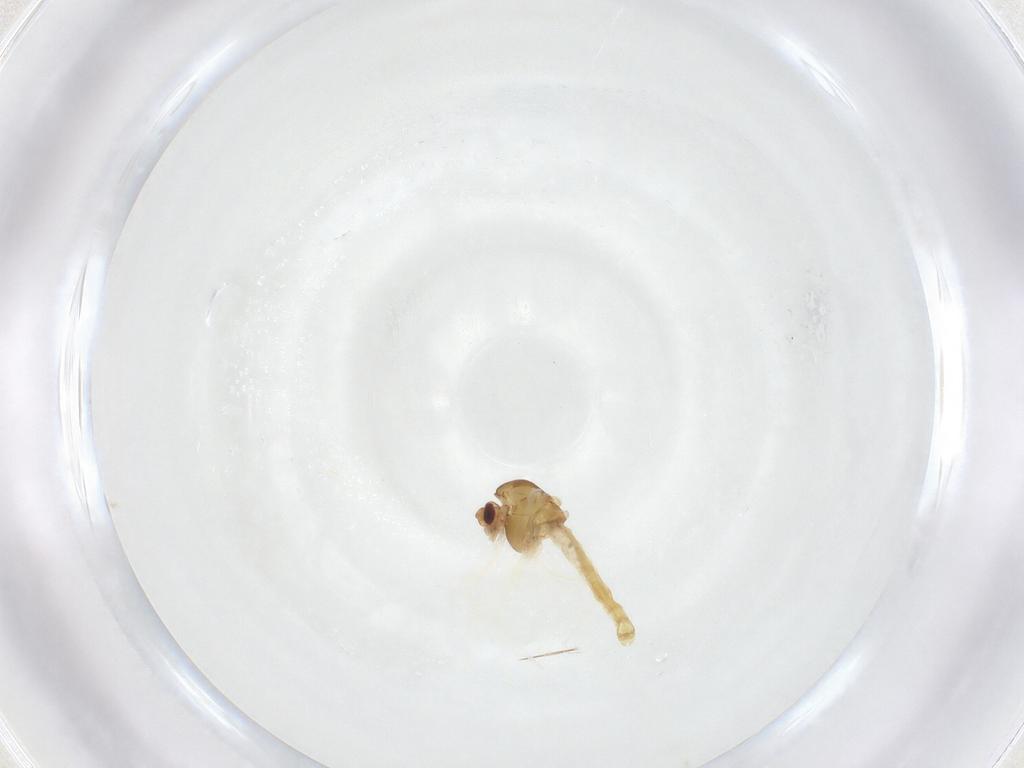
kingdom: Animalia
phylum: Arthropoda
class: Insecta
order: Diptera
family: Chironomidae
